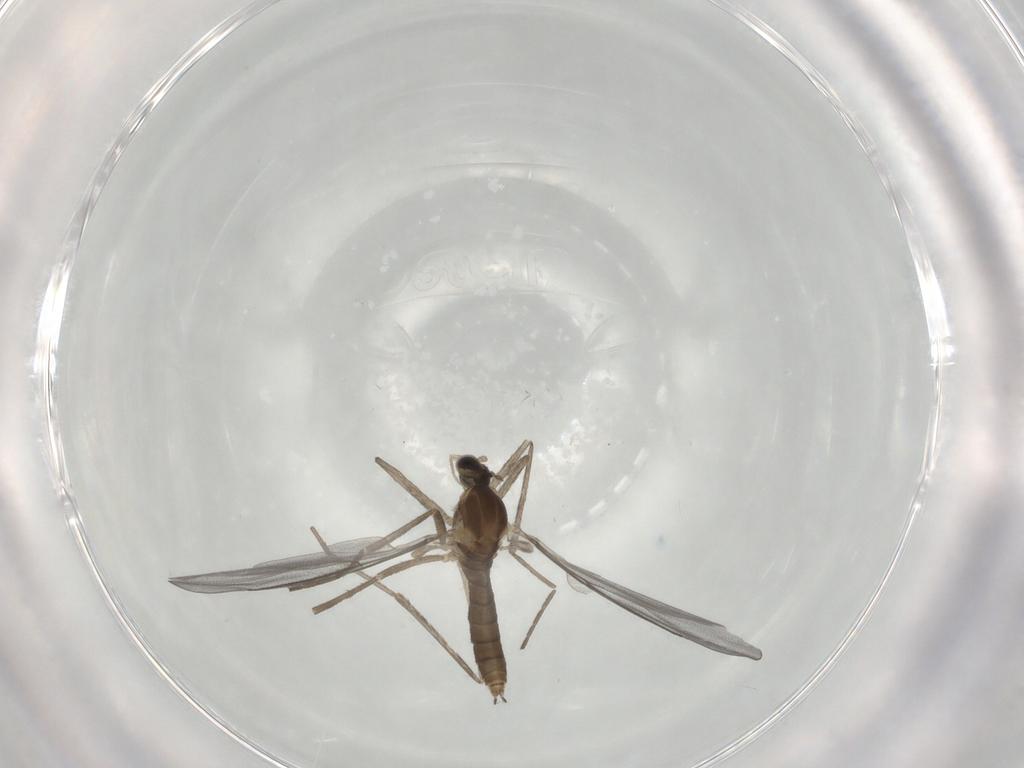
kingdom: Animalia
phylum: Arthropoda
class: Insecta
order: Diptera
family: Cecidomyiidae
